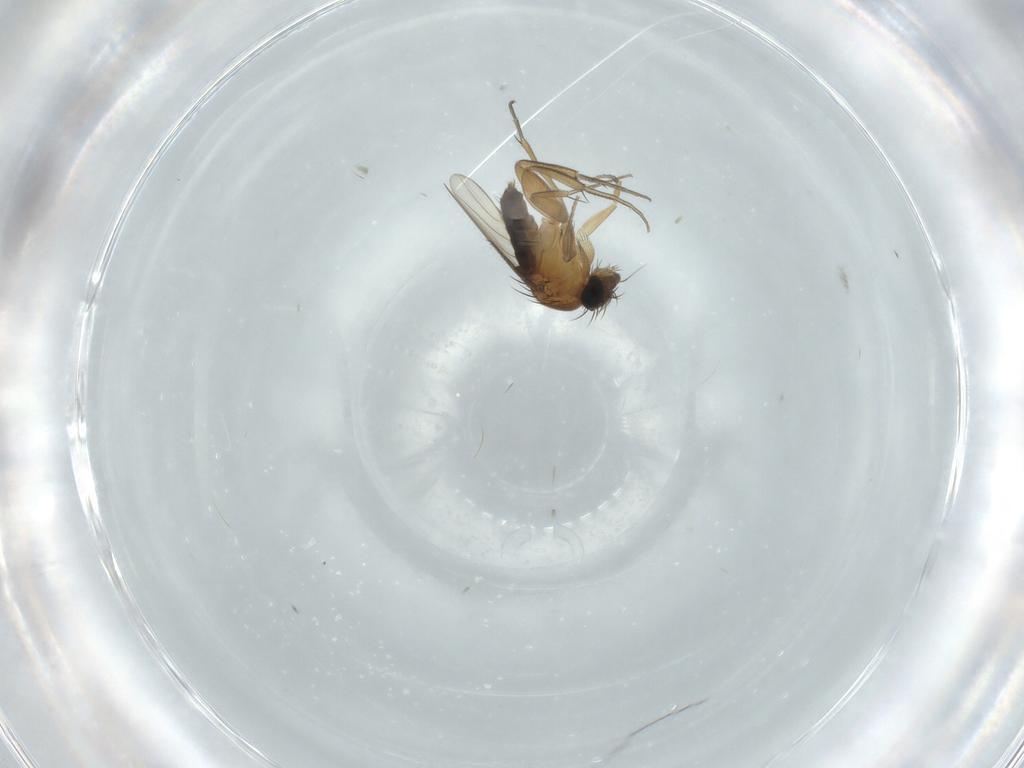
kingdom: Animalia
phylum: Arthropoda
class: Insecta
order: Diptera
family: Phoridae
